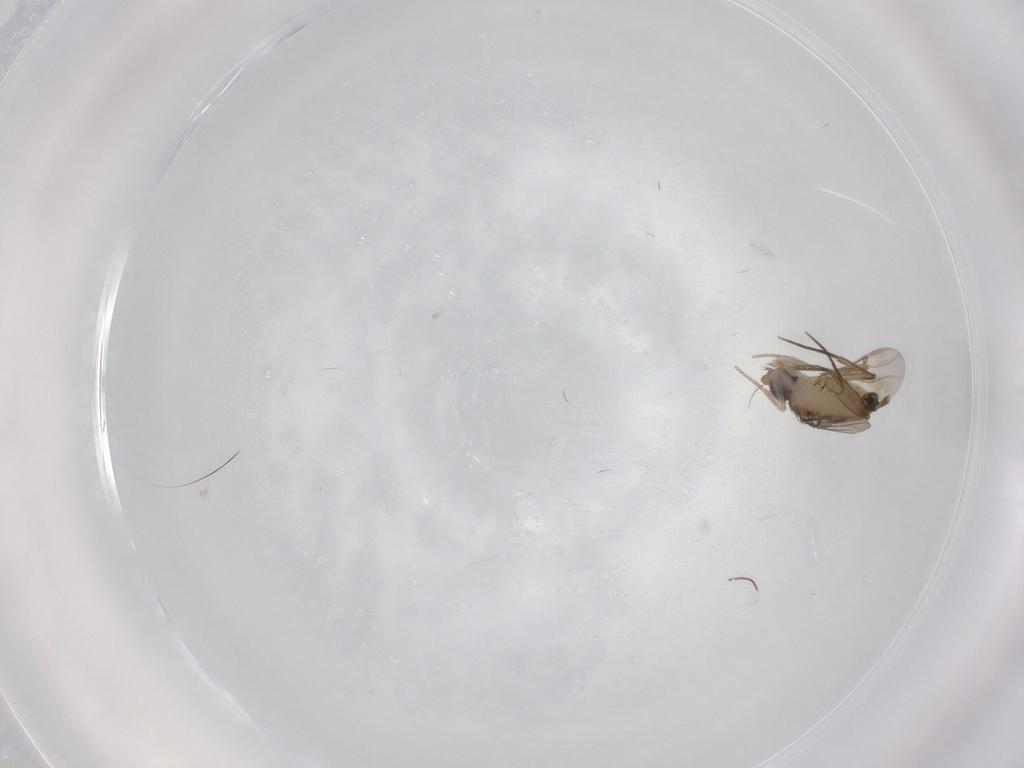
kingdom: Animalia
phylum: Arthropoda
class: Insecta
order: Diptera
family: Phoridae
